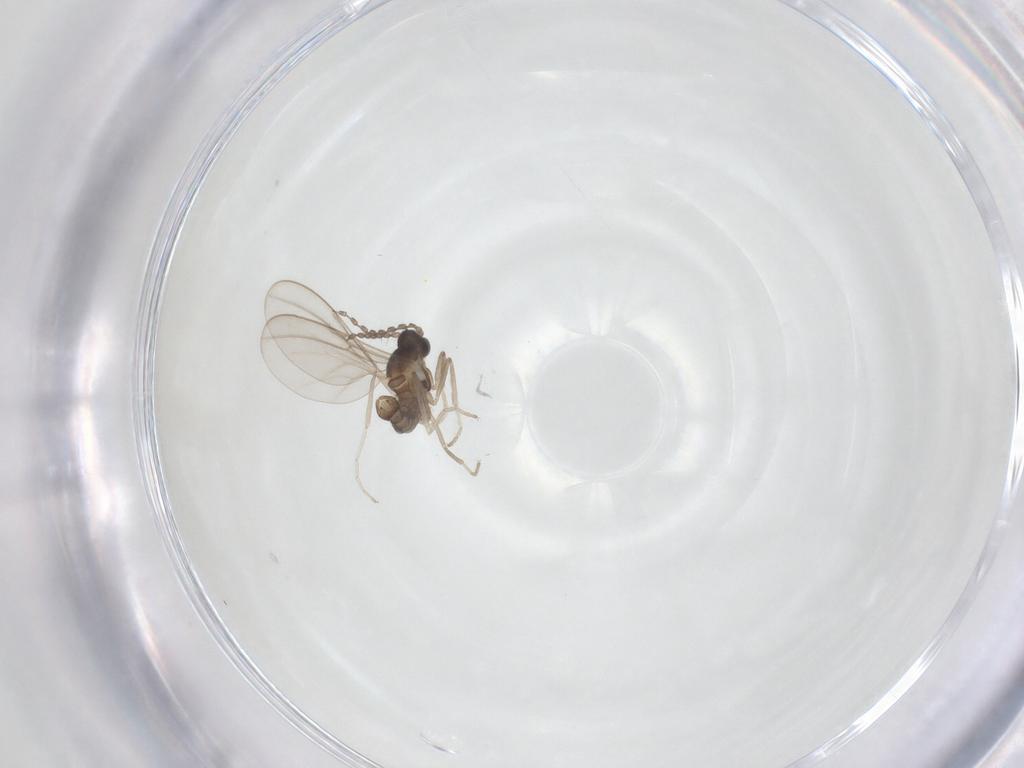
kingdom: Animalia
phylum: Arthropoda
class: Insecta
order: Diptera
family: Cecidomyiidae
